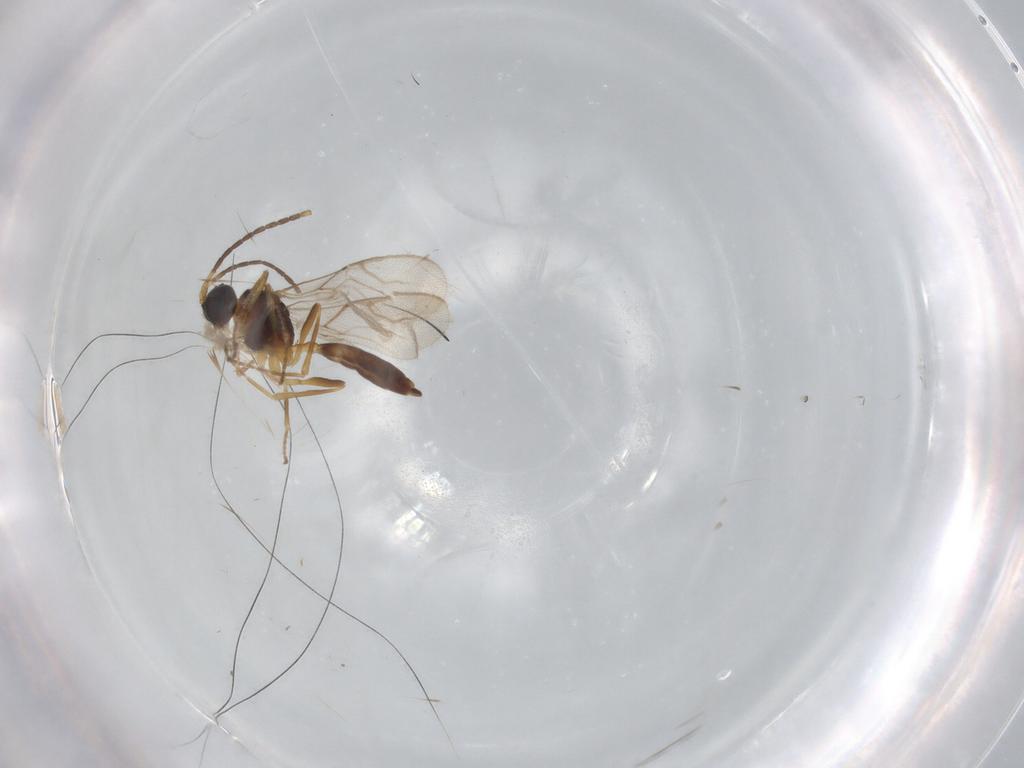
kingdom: Animalia
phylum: Arthropoda
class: Insecta
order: Hymenoptera
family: Braconidae
